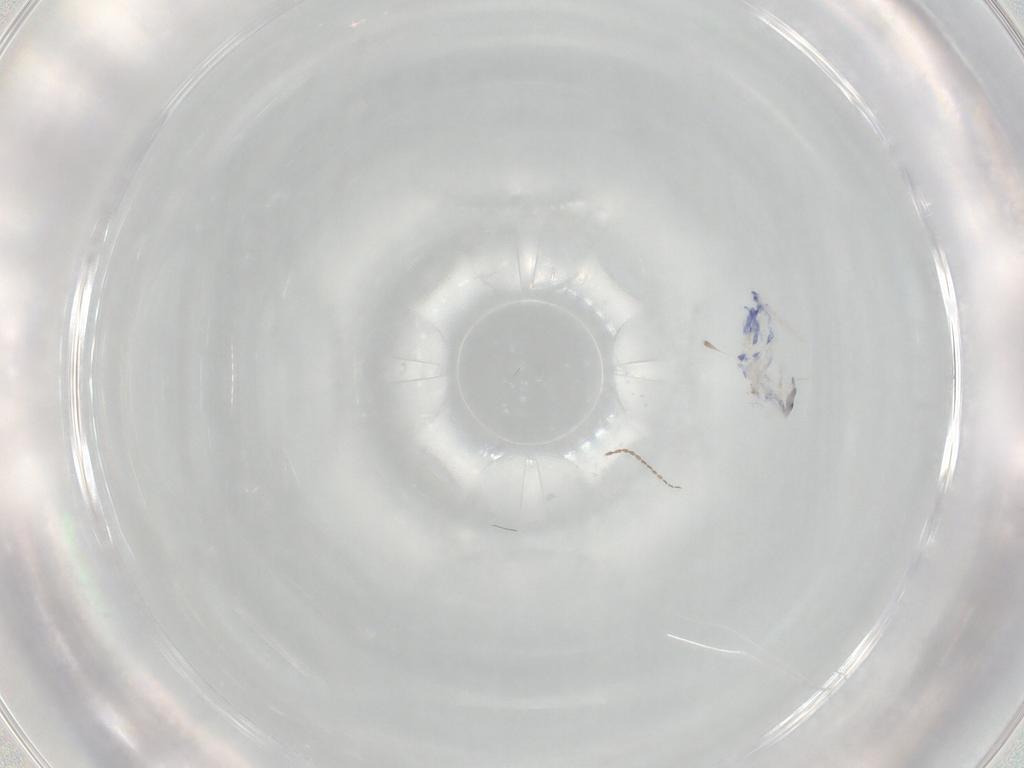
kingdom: Animalia
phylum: Arthropoda
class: Collembola
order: Entomobryomorpha
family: Entomobryidae
